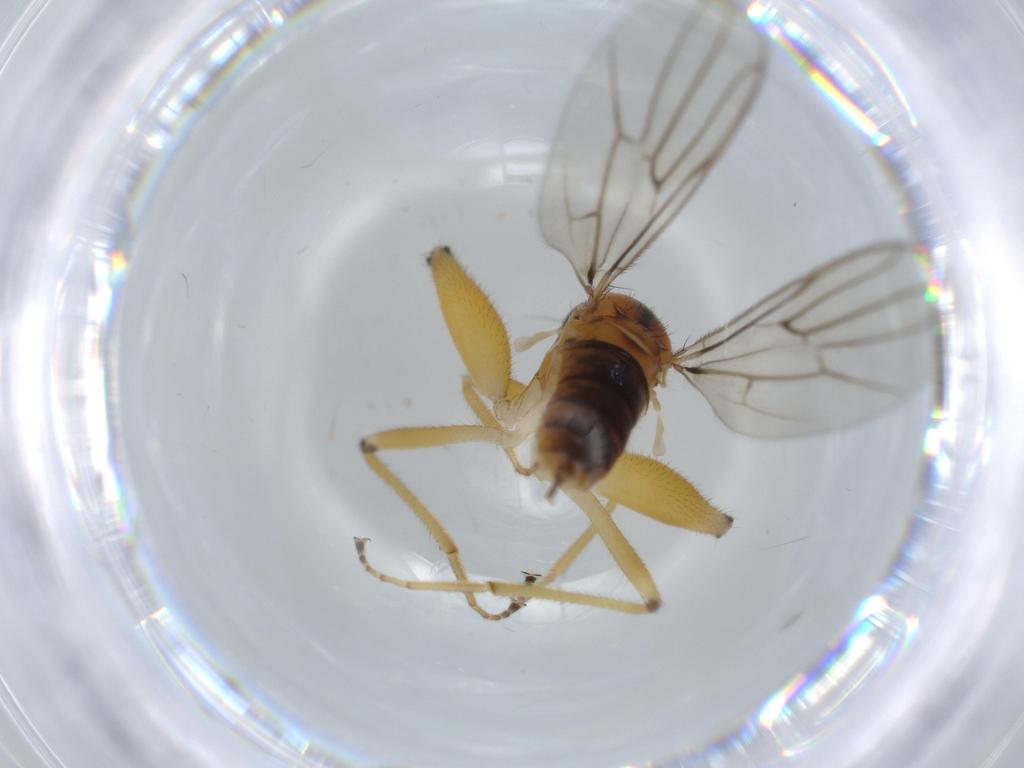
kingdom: Animalia
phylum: Arthropoda
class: Insecta
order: Diptera
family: Hybotidae
